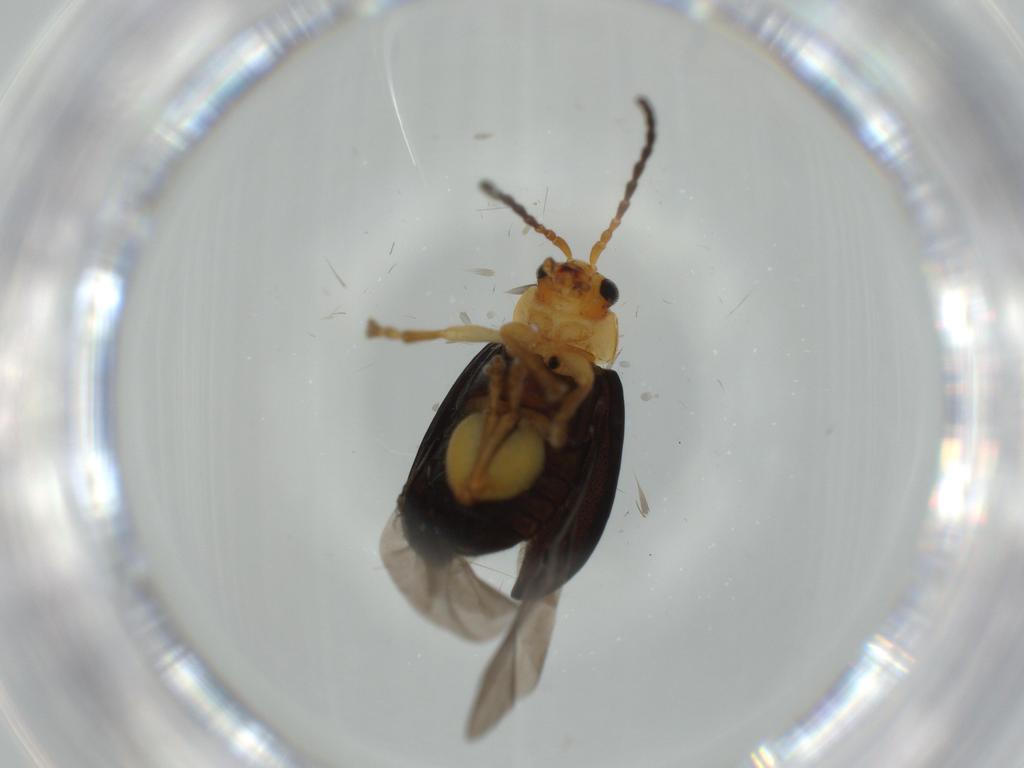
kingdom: Animalia
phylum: Arthropoda
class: Insecta
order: Coleoptera
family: Chrysomelidae
